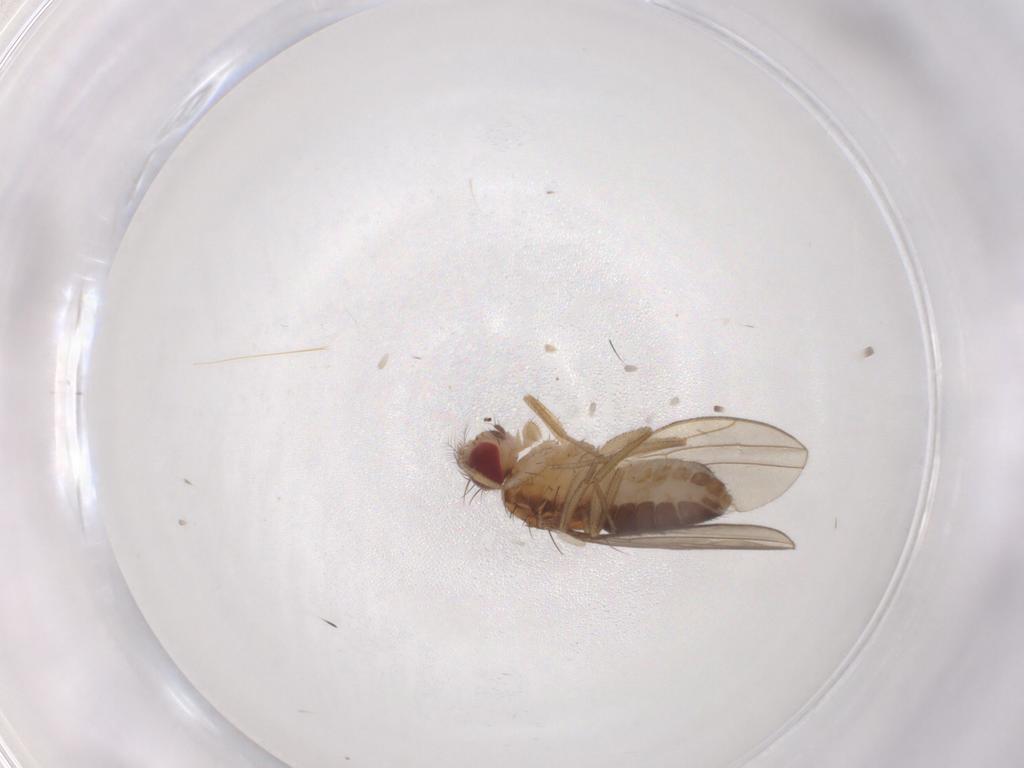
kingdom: Animalia
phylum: Arthropoda
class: Insecta
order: Diptera
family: Drosophilidae
